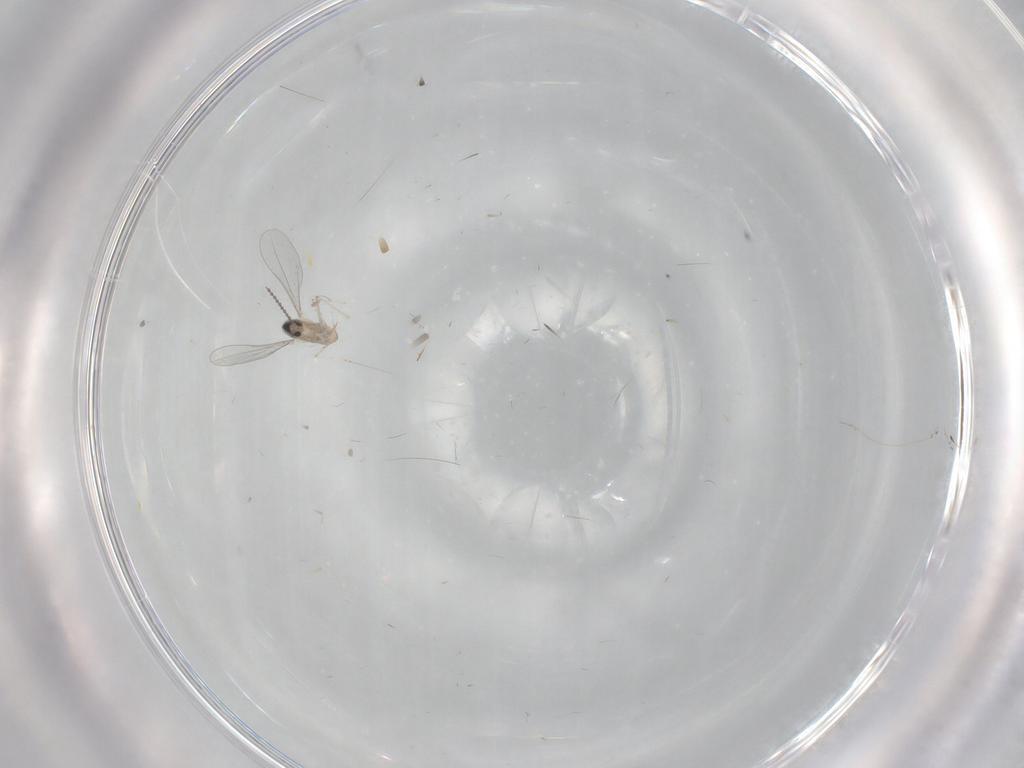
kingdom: Animalia
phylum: Arthropoda
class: Insecta
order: Diptera
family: Cecidomyiidae
